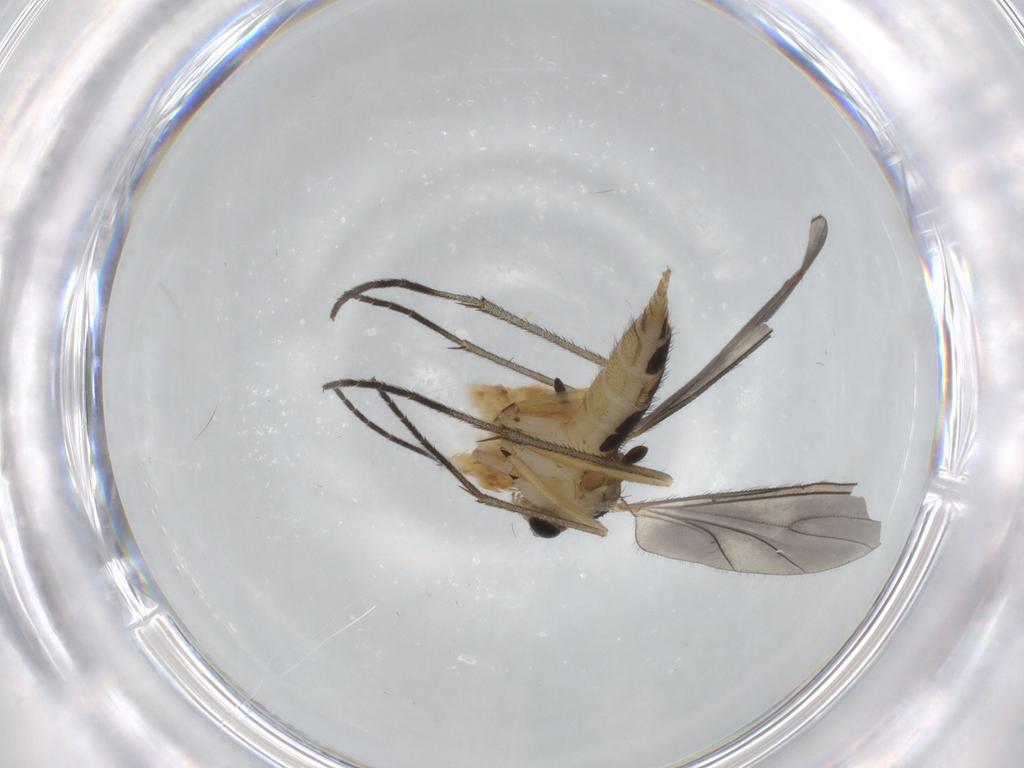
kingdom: Animalia
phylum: Arthropoda
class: Insecta
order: Diptera
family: Sciaridae
